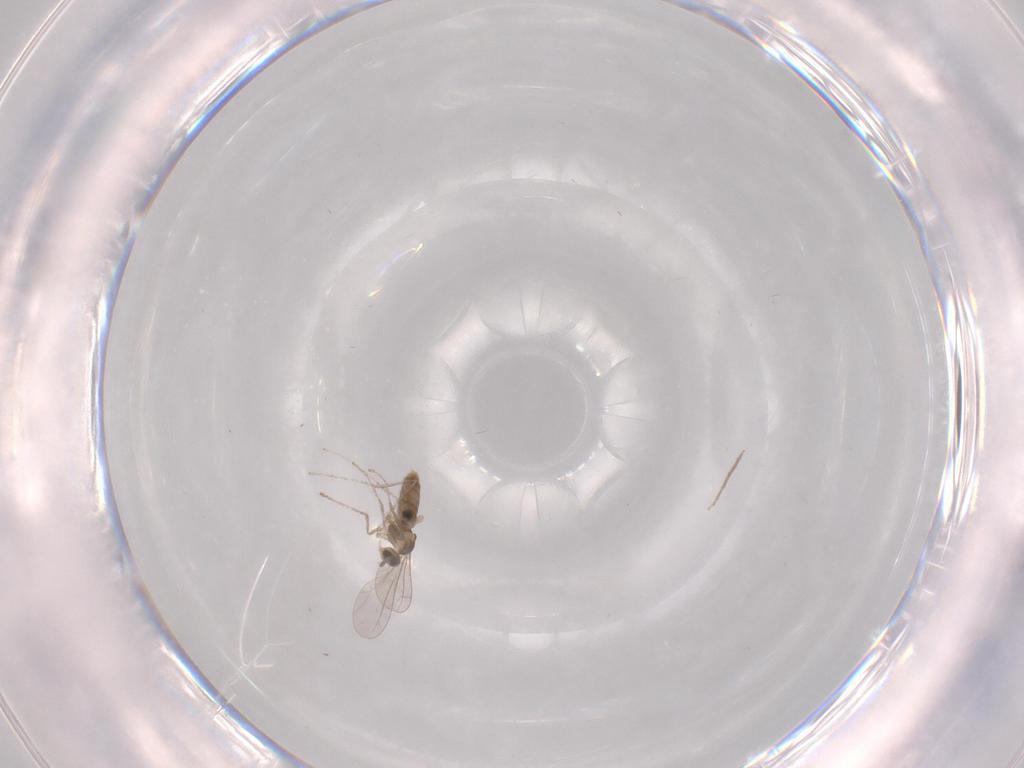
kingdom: Animalia
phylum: Arthropoda
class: Insecta
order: Diptera
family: Chironomidae
